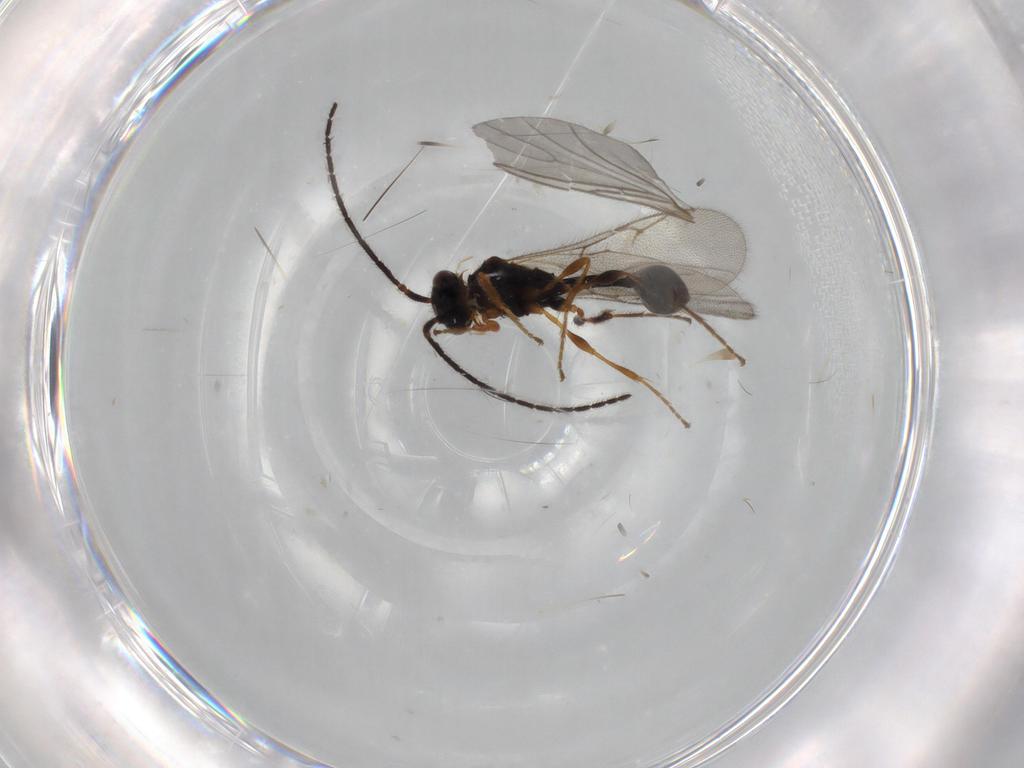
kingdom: Animalia
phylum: Arthropoda
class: Insecta
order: Hymenoptera
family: Diapriidae
